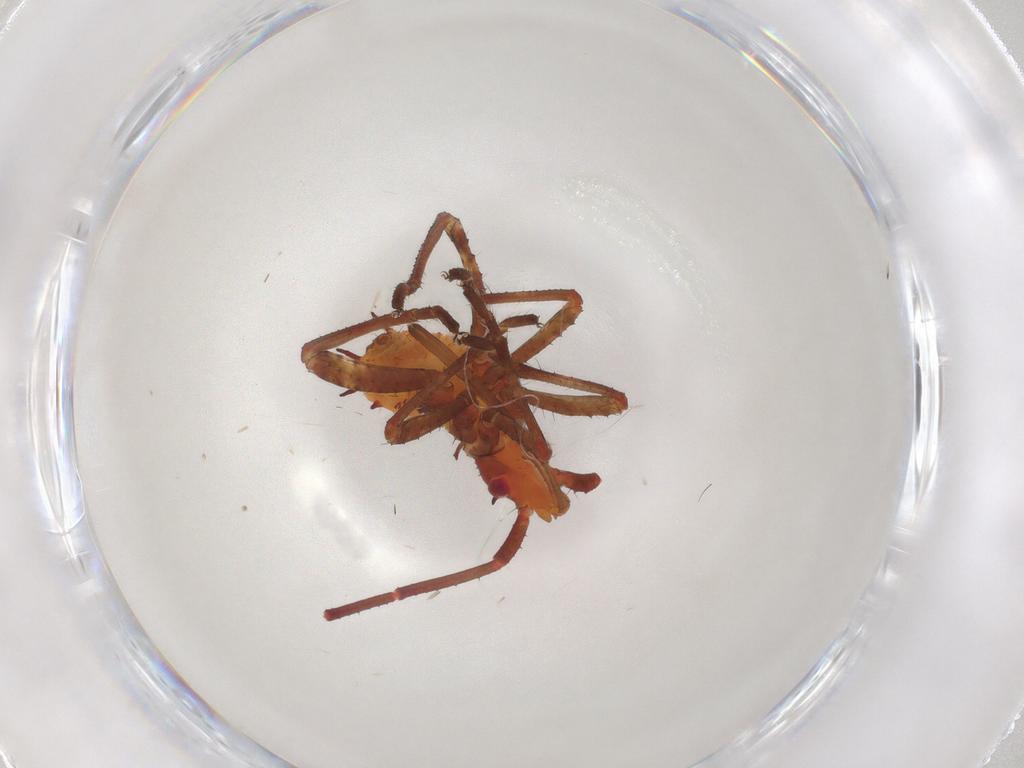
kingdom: Animalia
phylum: Arthropoda
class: Insecta
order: Hemiptera
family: Coreidae
